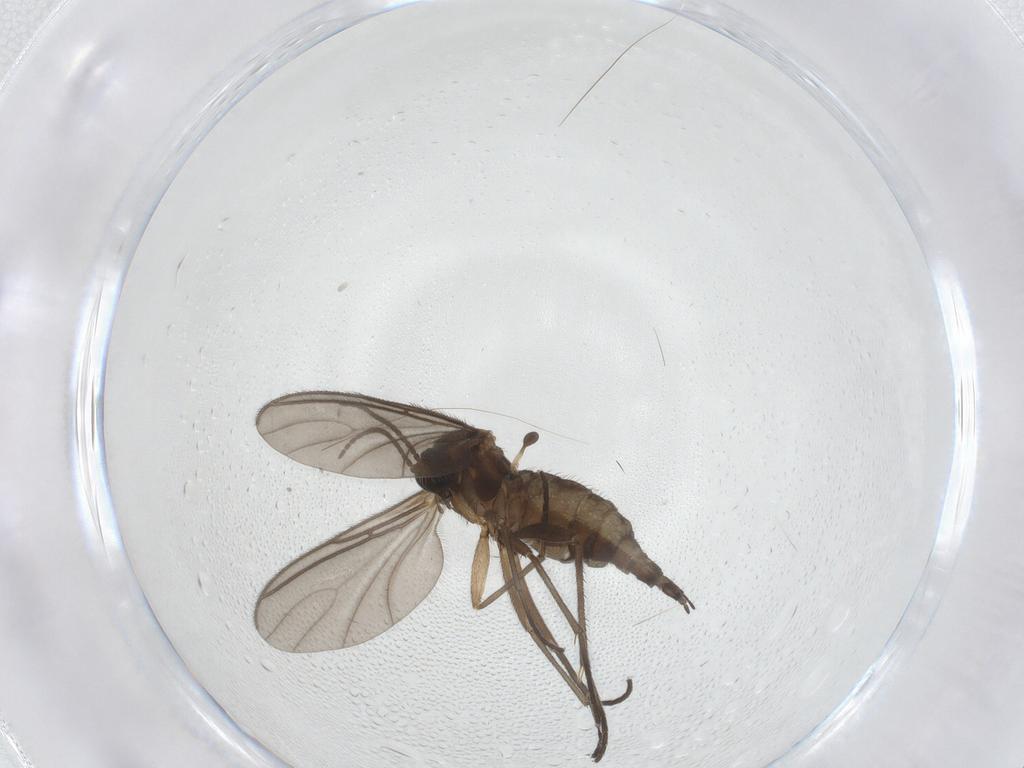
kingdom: Animalia
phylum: Arthropoda
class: Insecta
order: Diptera
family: Sciaridae
